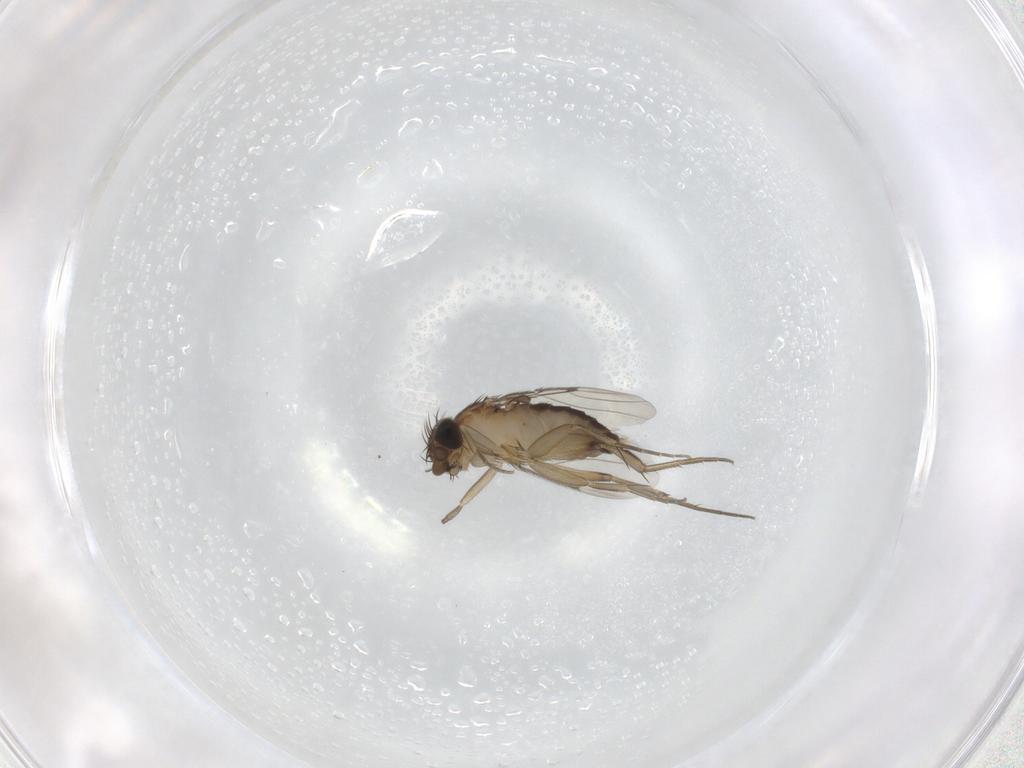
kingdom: Animalia
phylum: Arthropoda
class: Insecta
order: Diptera
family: Phoridae
